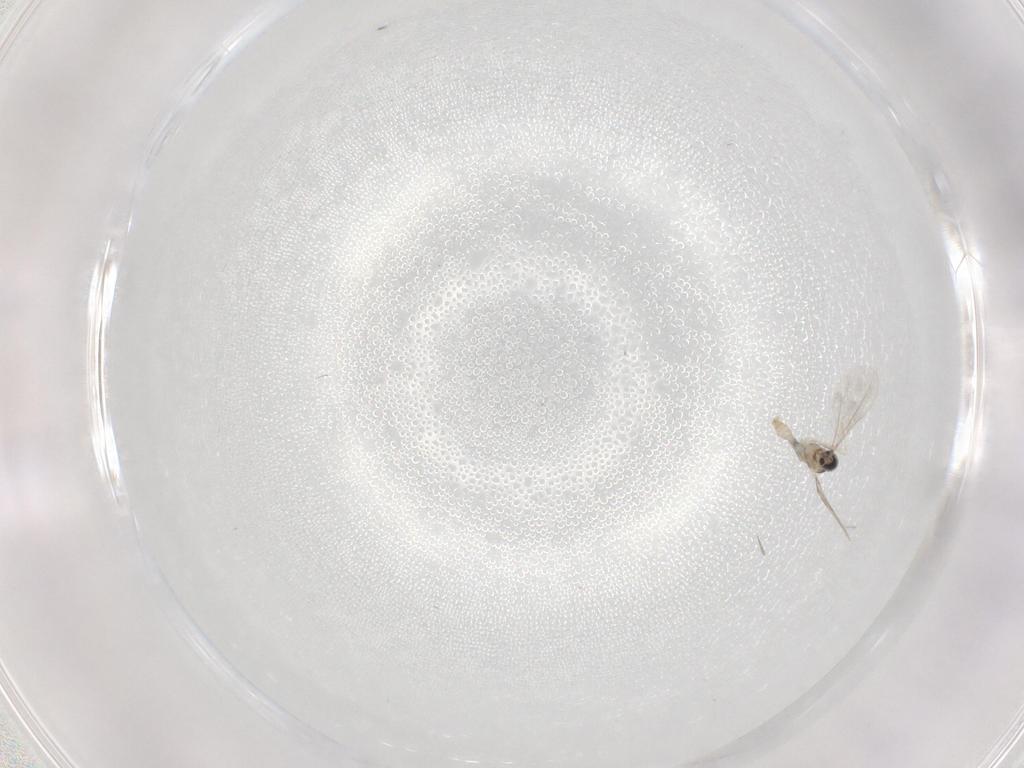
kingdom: Animalia
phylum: Arthropoda
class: Insecta
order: Diptera
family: Cecidomyiidae
